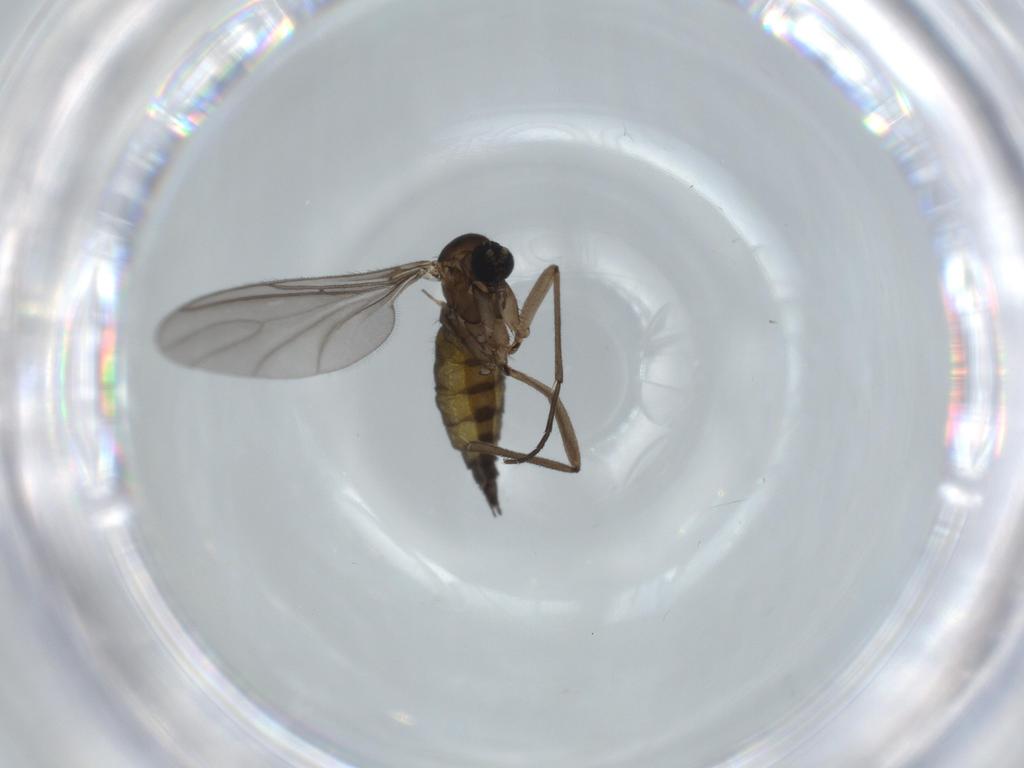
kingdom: Animalia
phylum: Arthropoda
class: Insecta
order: Diptera
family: Sciaridae
